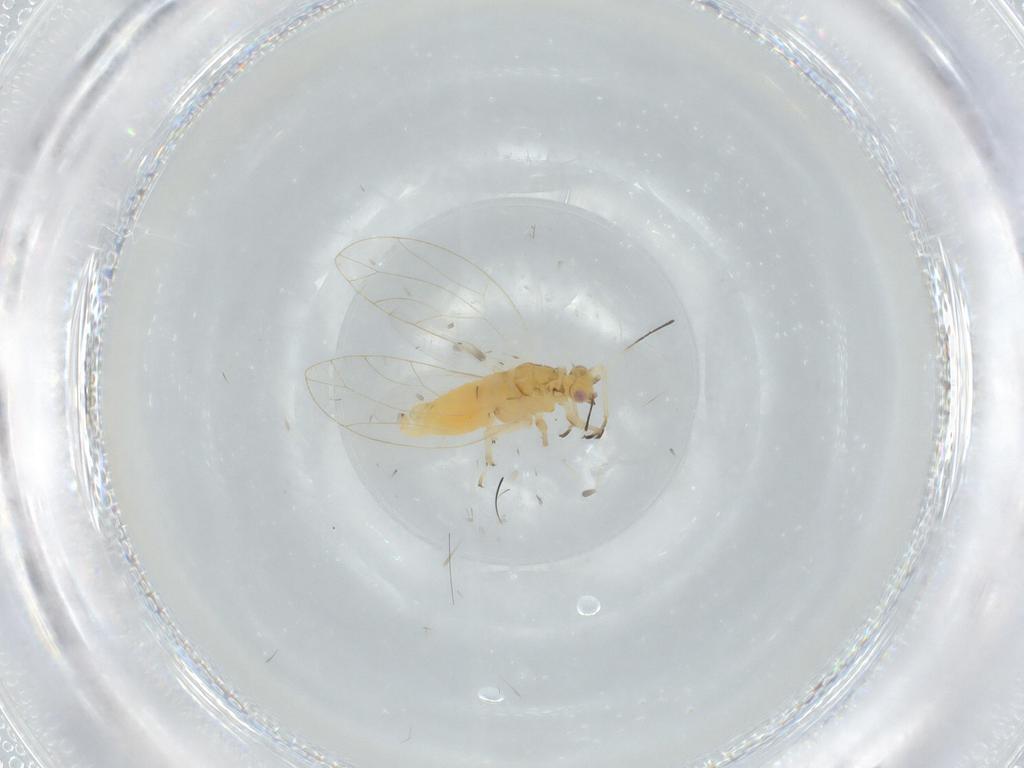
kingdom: Animalia
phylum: Arthropoda
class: Insecta
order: Hemiptera
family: Triozidae
